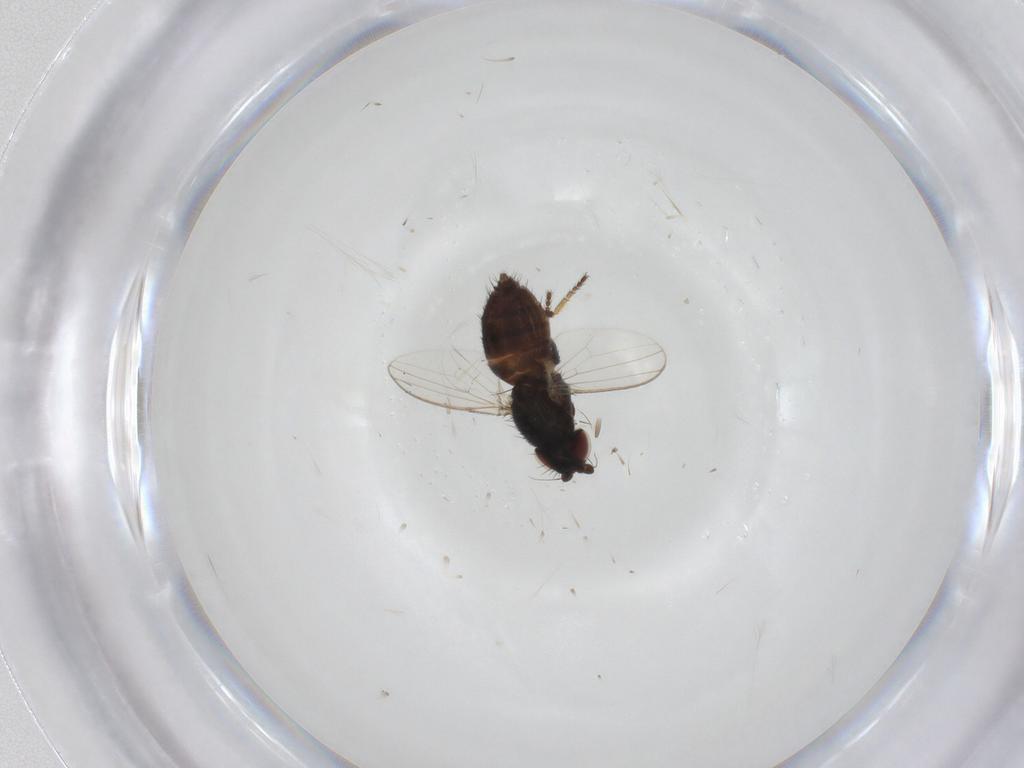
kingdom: Animalia
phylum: Arthropoda
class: Insecta
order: Diptera
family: Milichiidae
